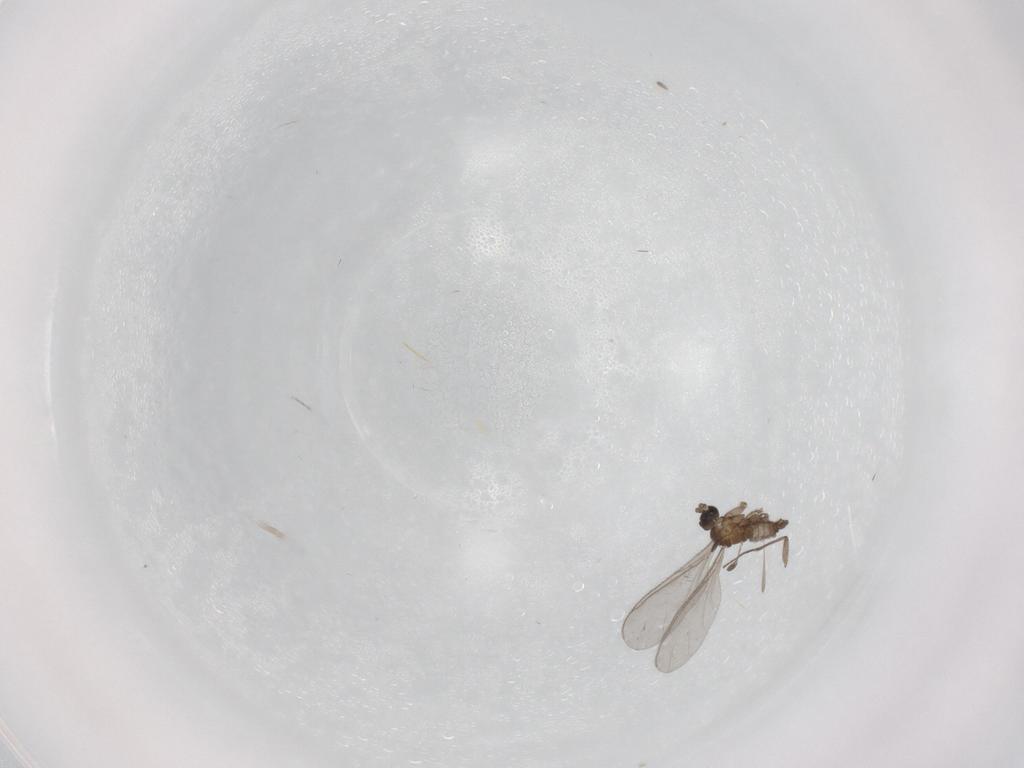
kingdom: Animalia
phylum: Arthropoda
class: Insecta
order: Diptera
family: Sciaridae
